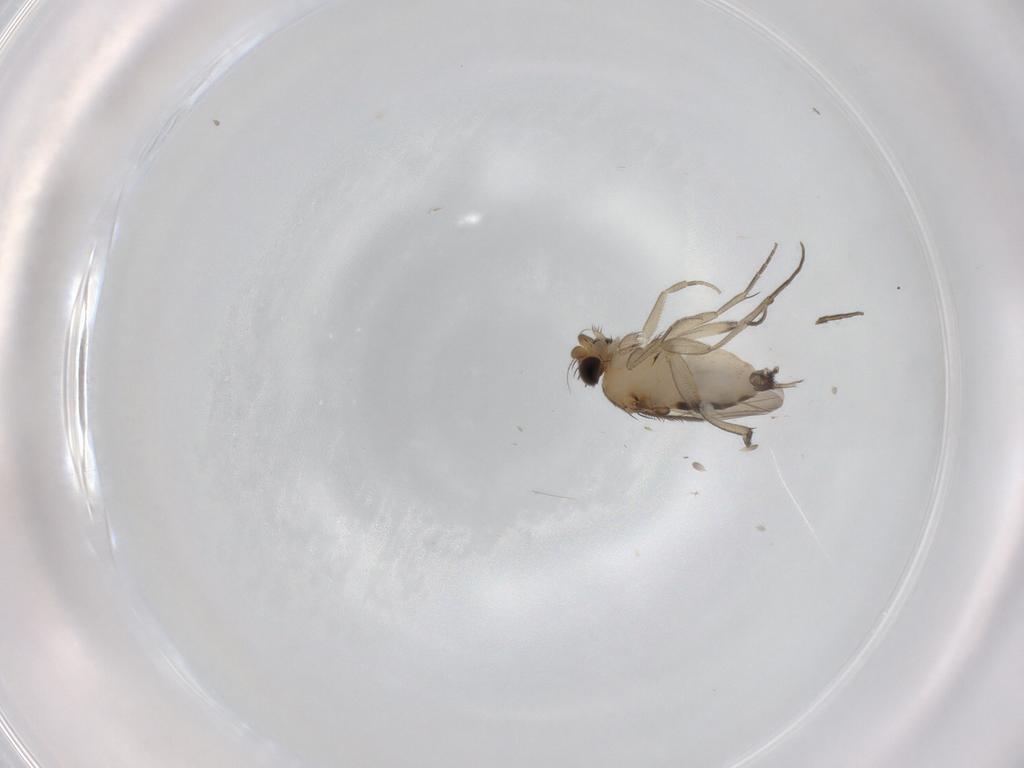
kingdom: Animalia
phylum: Arthropoda
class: Insecta
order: Diptera
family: Phoridae
